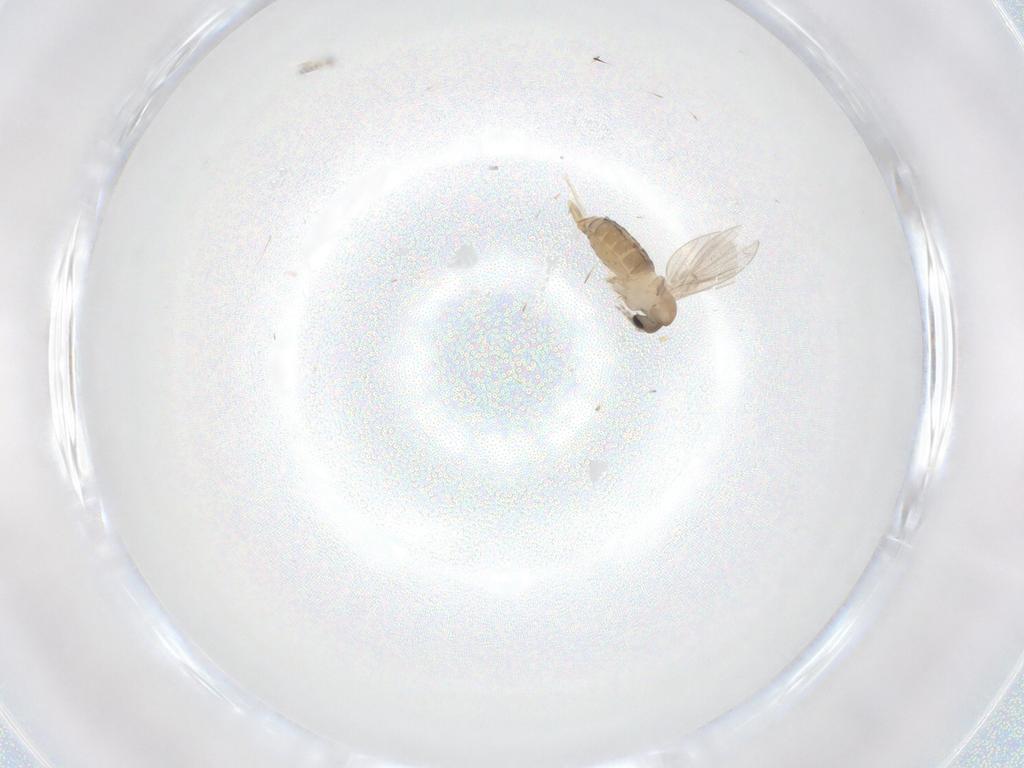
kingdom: Animalia
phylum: Arthropoda
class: Insecta
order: Diptera
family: Psychodidae
